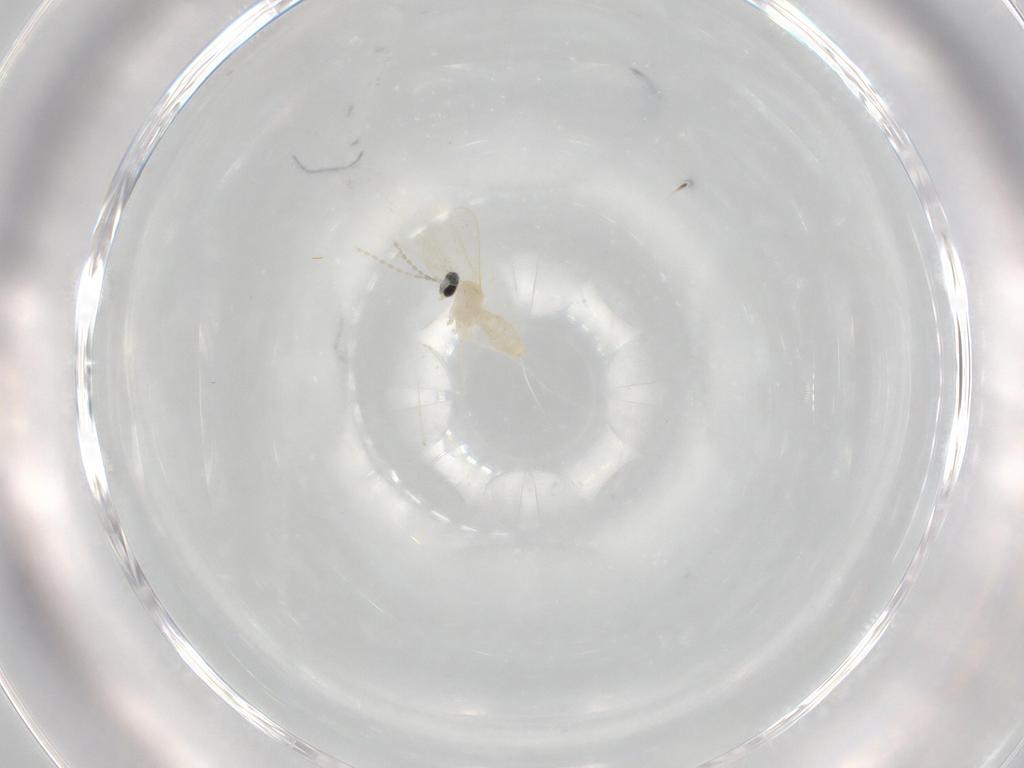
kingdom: Animalia
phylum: Arthropoda
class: Insecta
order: Diptera
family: Cecidomyiidae
